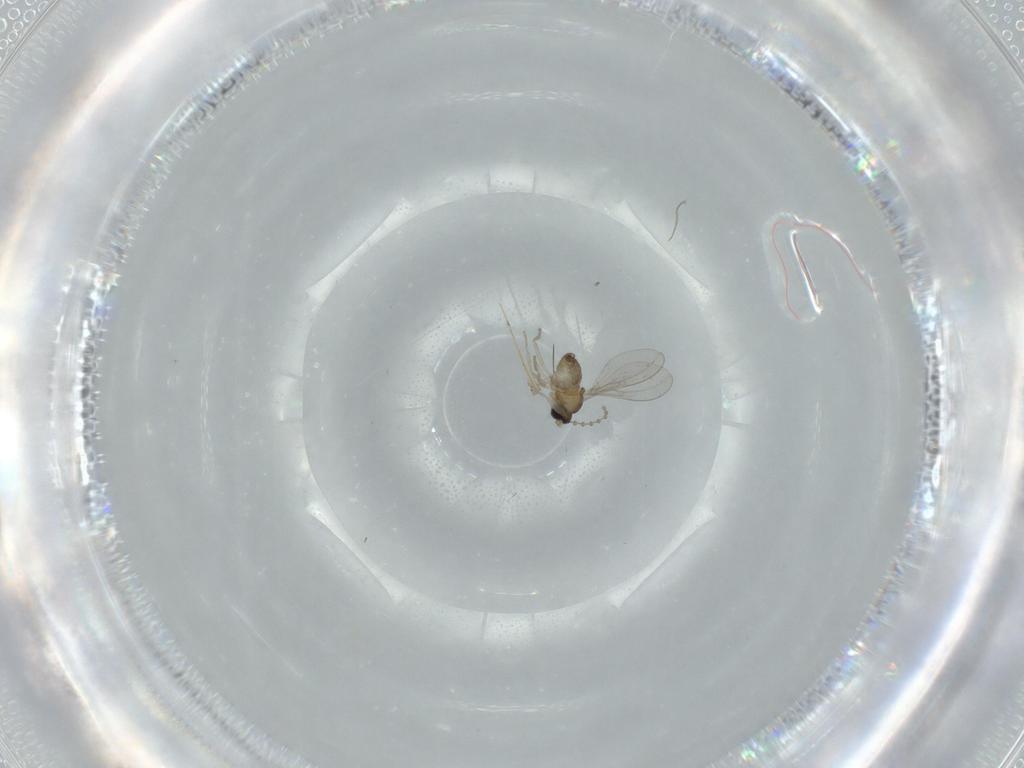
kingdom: Animalia
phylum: Arthropoda
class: Insecta
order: Diptera
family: Cecidomyiidae
